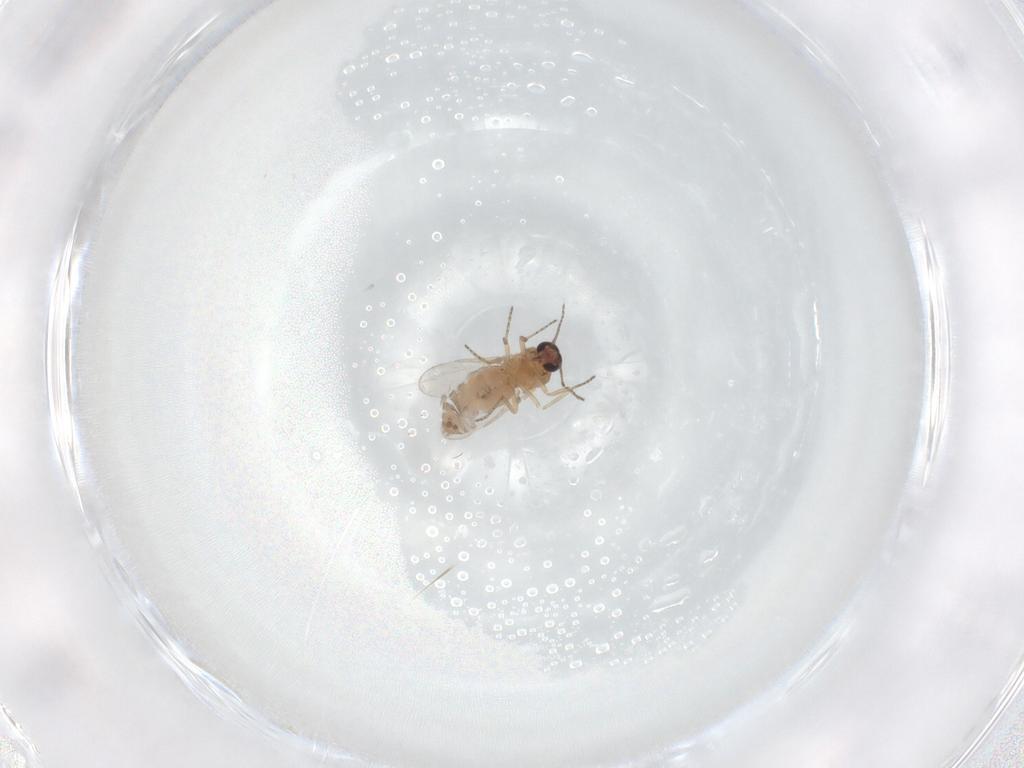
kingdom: Animalia
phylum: Arthropoda
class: Insecta
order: Diptera
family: Ceratopogonidae
